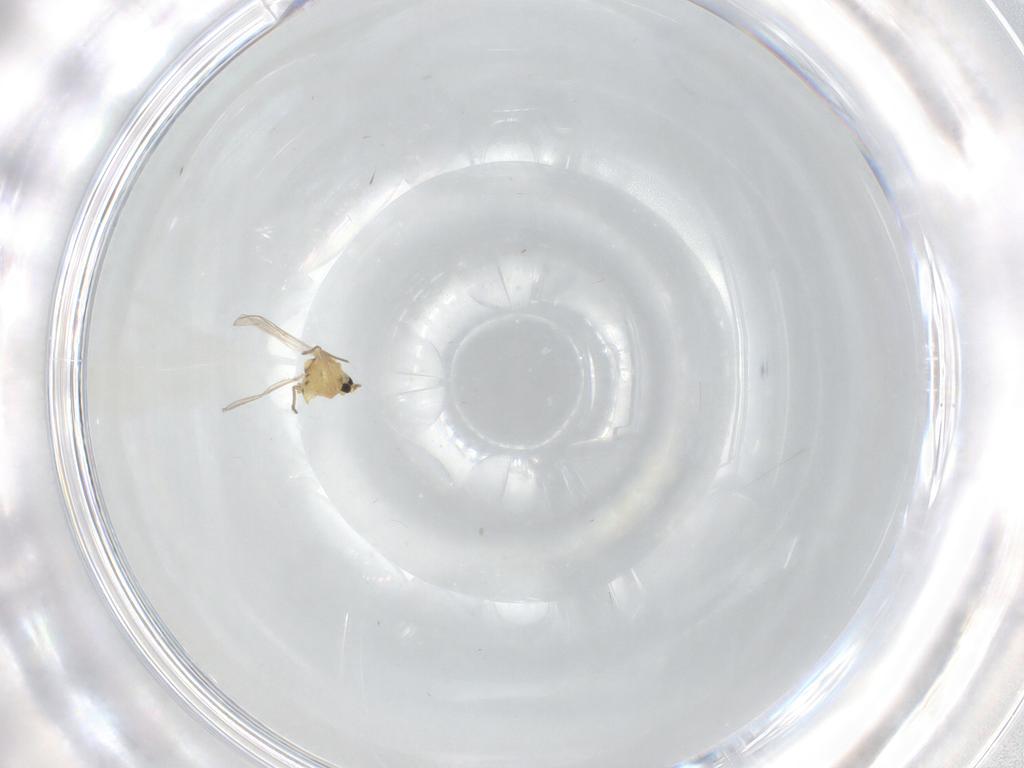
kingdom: Animalia
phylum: Arthropoda
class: Insecta
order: Diptera
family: Chironomidae
